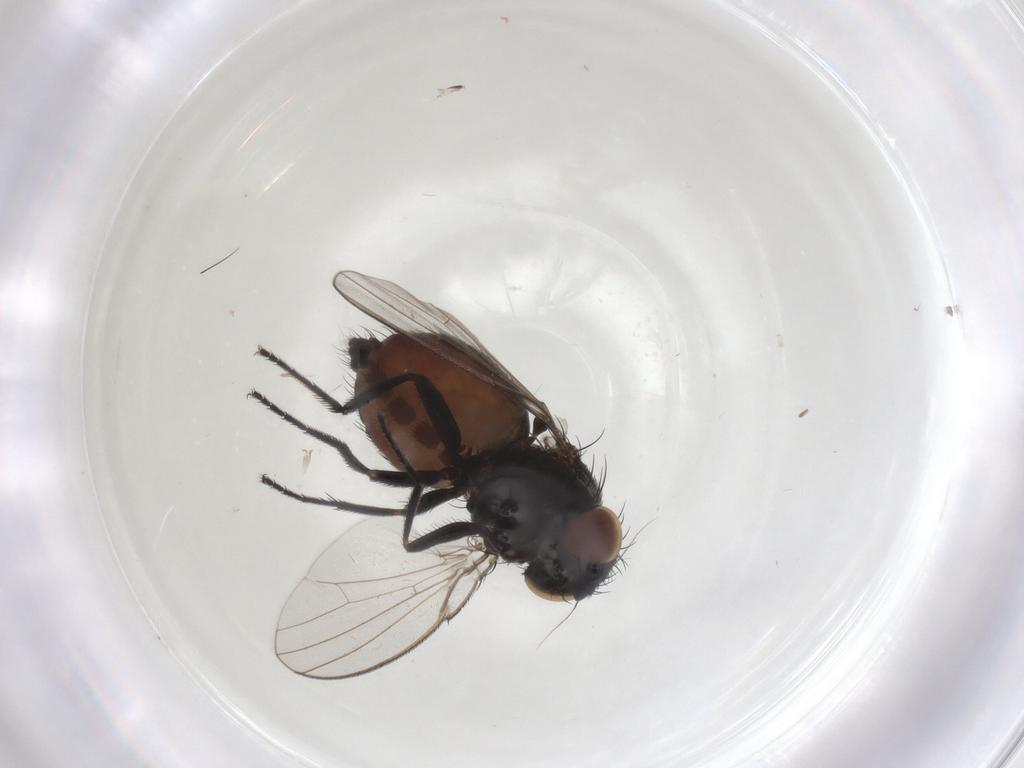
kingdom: Animalia
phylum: Arthropoda
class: Insecta
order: Diptera
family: Milichiidae
